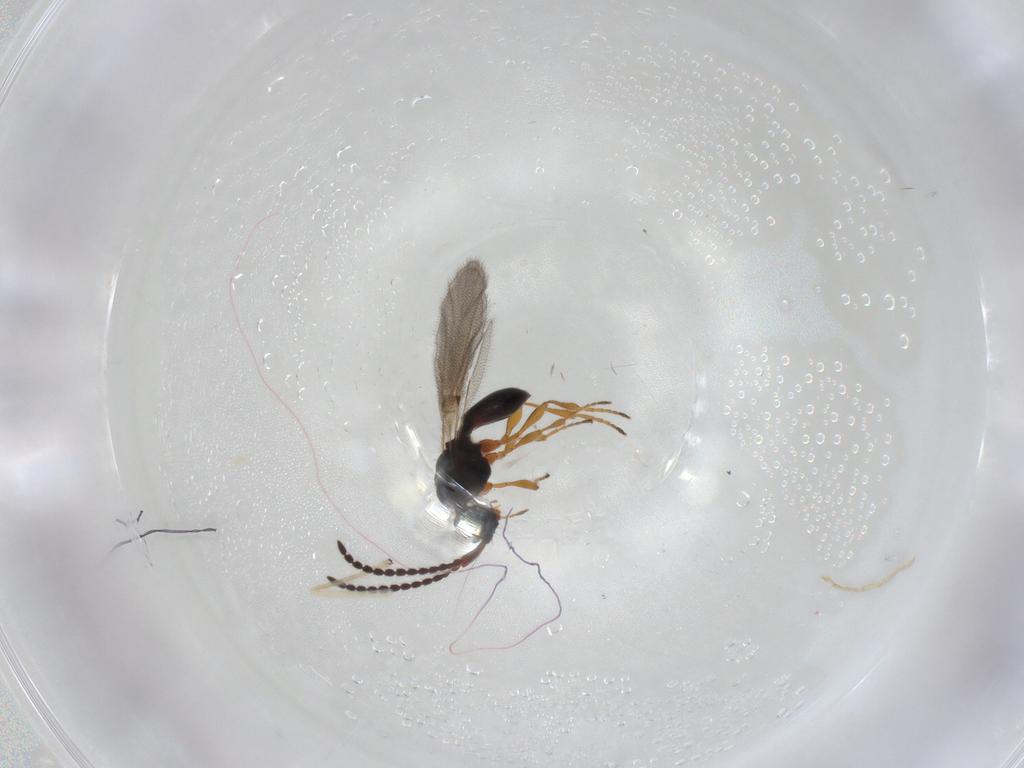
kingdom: Animalia
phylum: Arthropoda
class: Insecta
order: Hymenoptera
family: Diapriidae
